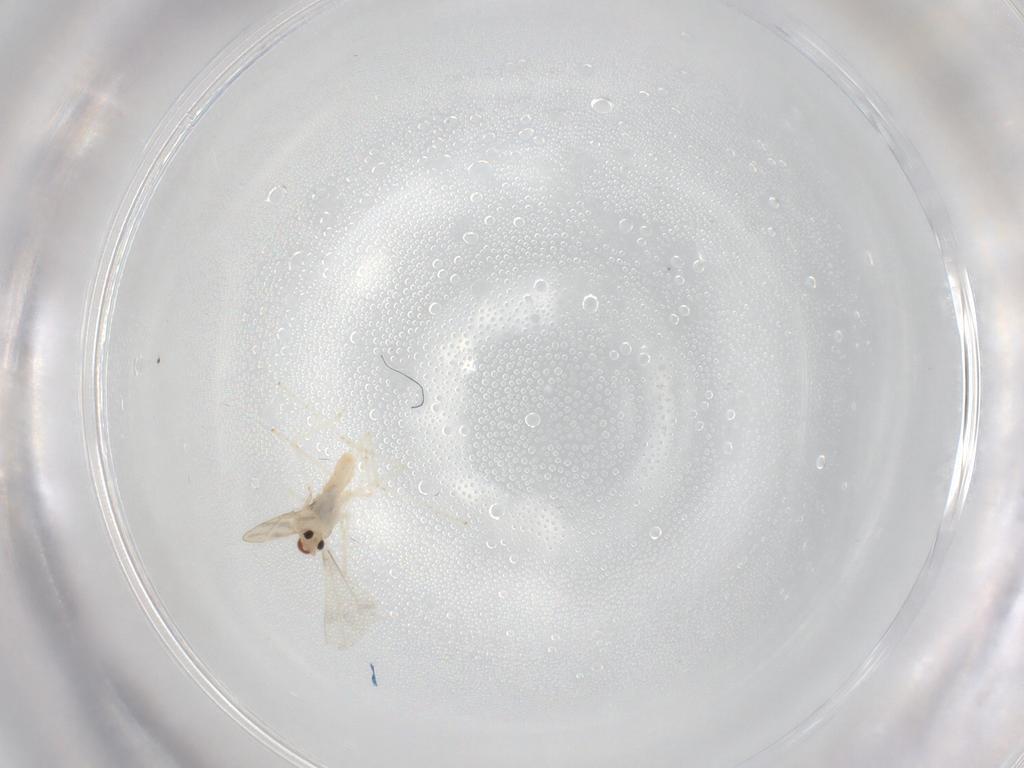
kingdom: Animalia
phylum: Arthropoda
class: Insecta
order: Diptera
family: Cecidomyiidae
